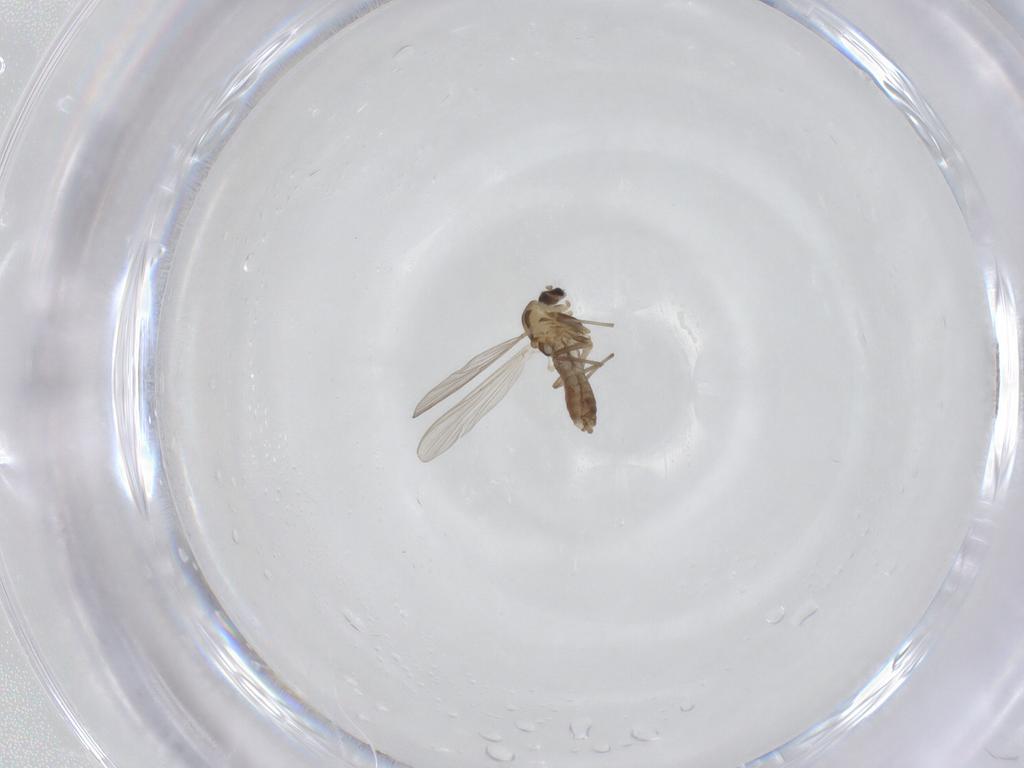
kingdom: Animalia
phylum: Arthropoda
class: Insecta
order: Diptera
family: Chironomidae
